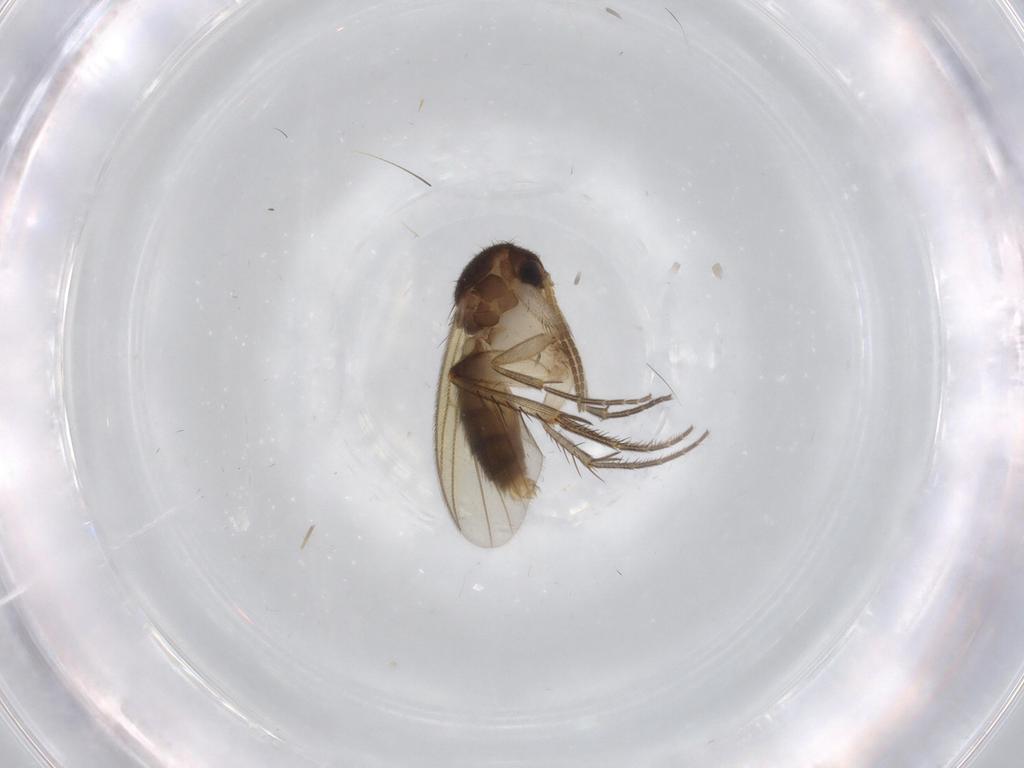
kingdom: Animalia
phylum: Arthropoda
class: Insecta
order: Diptera
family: Mycetophilidae
